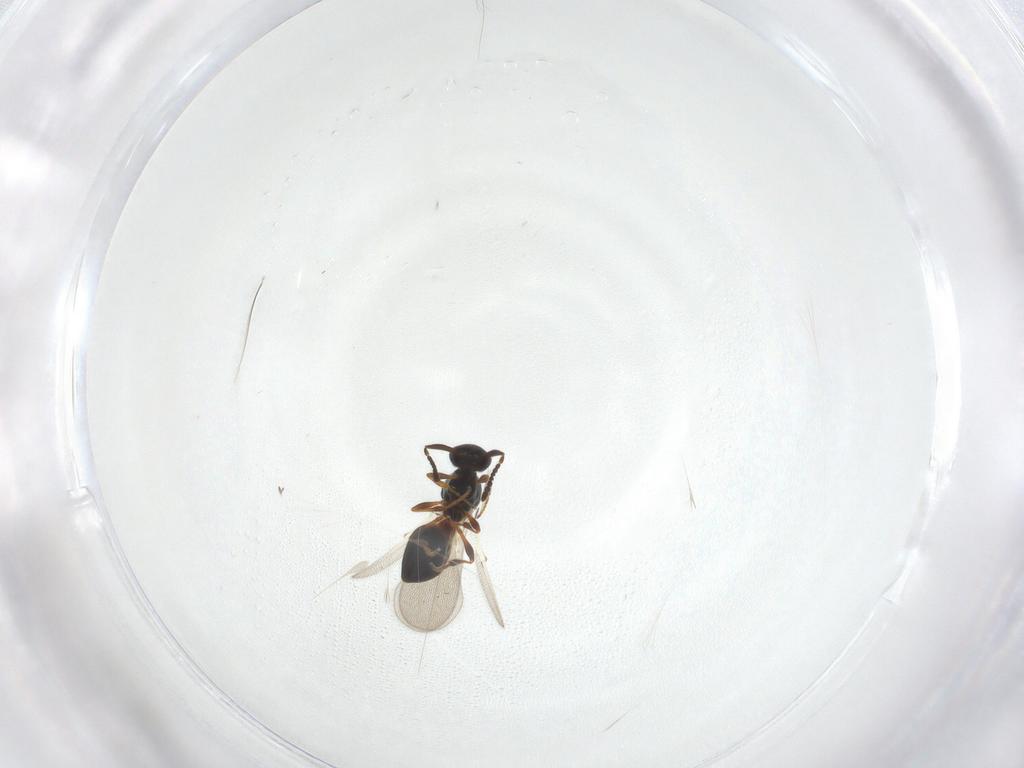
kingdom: Animalia
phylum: Arthropoda
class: Insecta
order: Hymenoptera
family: Platygastridae
